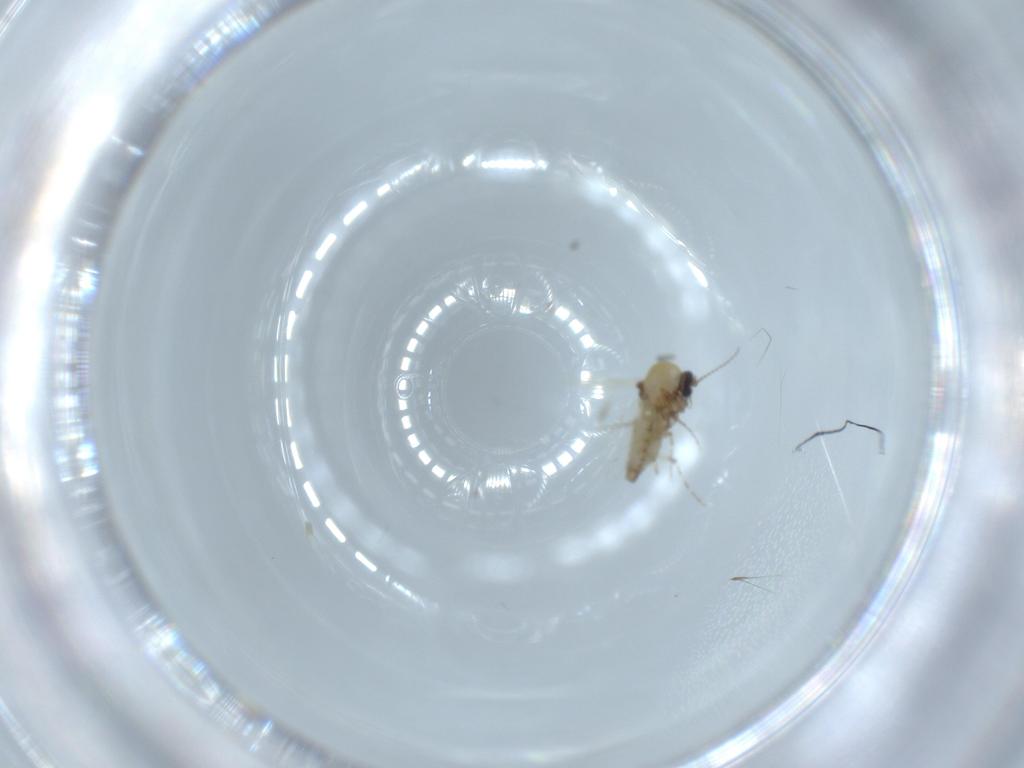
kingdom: Animalia
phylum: Arthropoda
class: Insecta
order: Diptera
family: Ceratopogonidae
